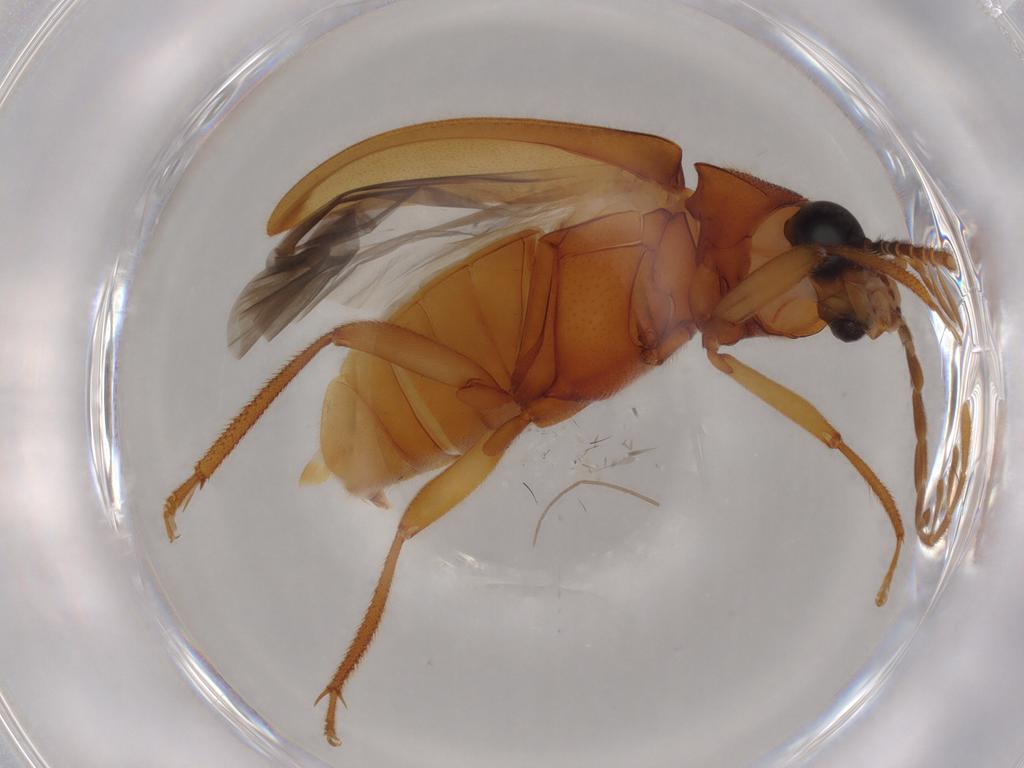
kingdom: Animalia
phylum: Arthropoda
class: Insecta
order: Coleoptera
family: Ptilodactylidae
